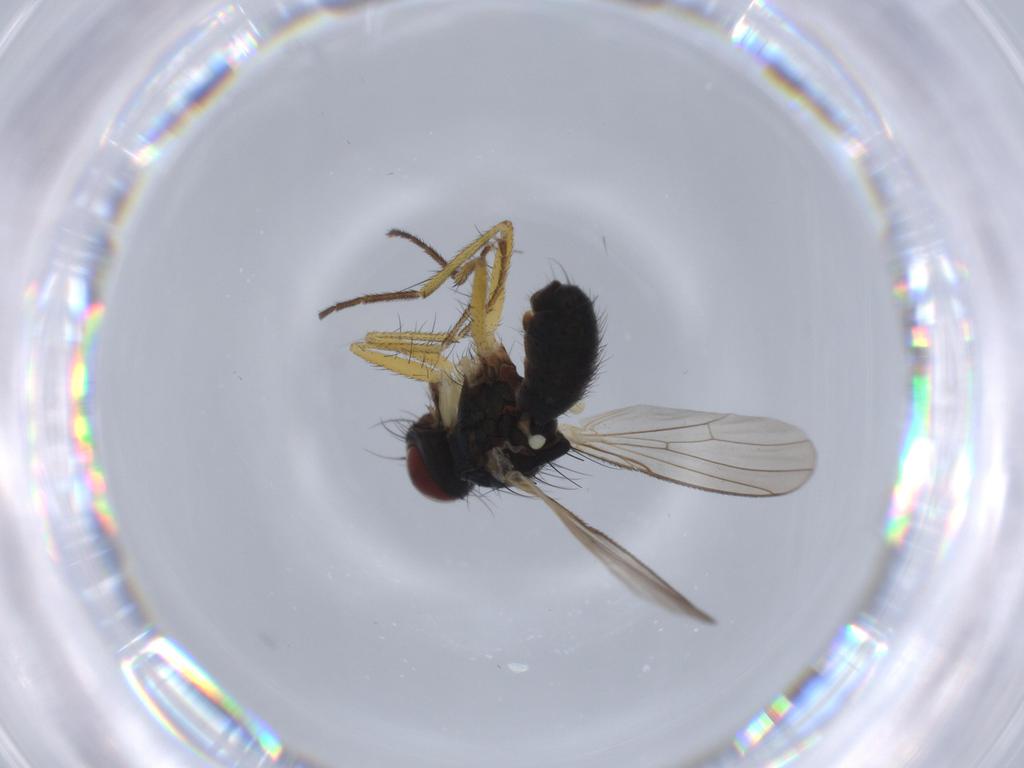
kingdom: Animalia
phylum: Arthropoda
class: Insecta
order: Diptera
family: Muscidae
